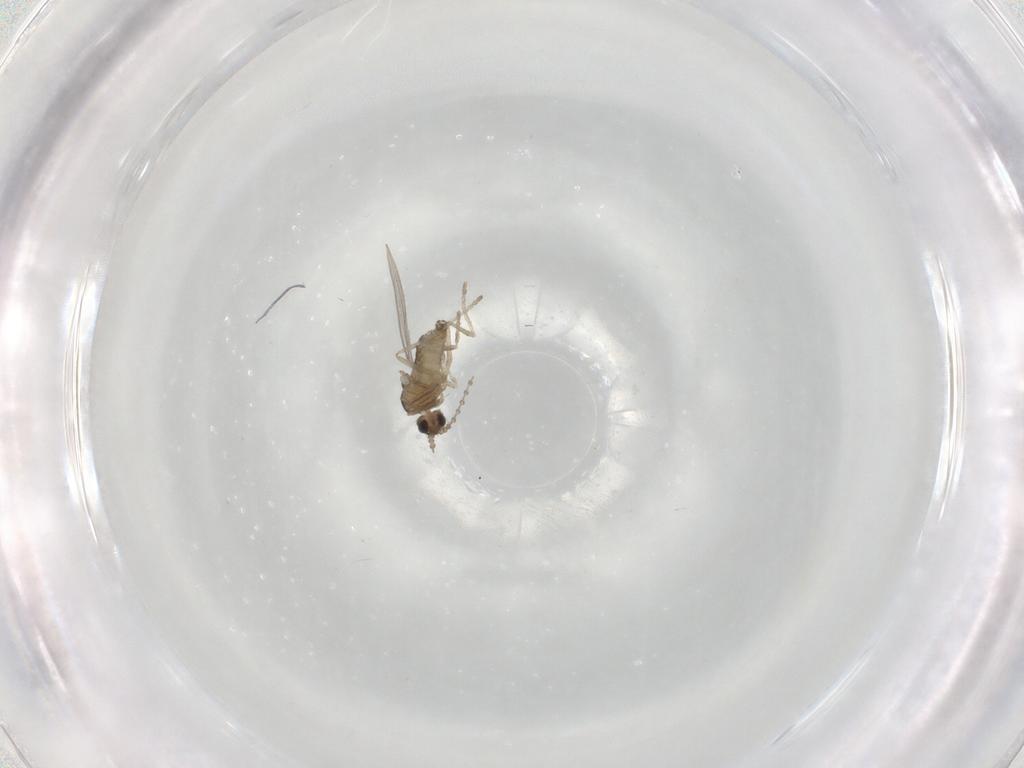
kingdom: Animalia
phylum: Arthropoda
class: Insecta
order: Diptera
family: Cecidomyiidae
